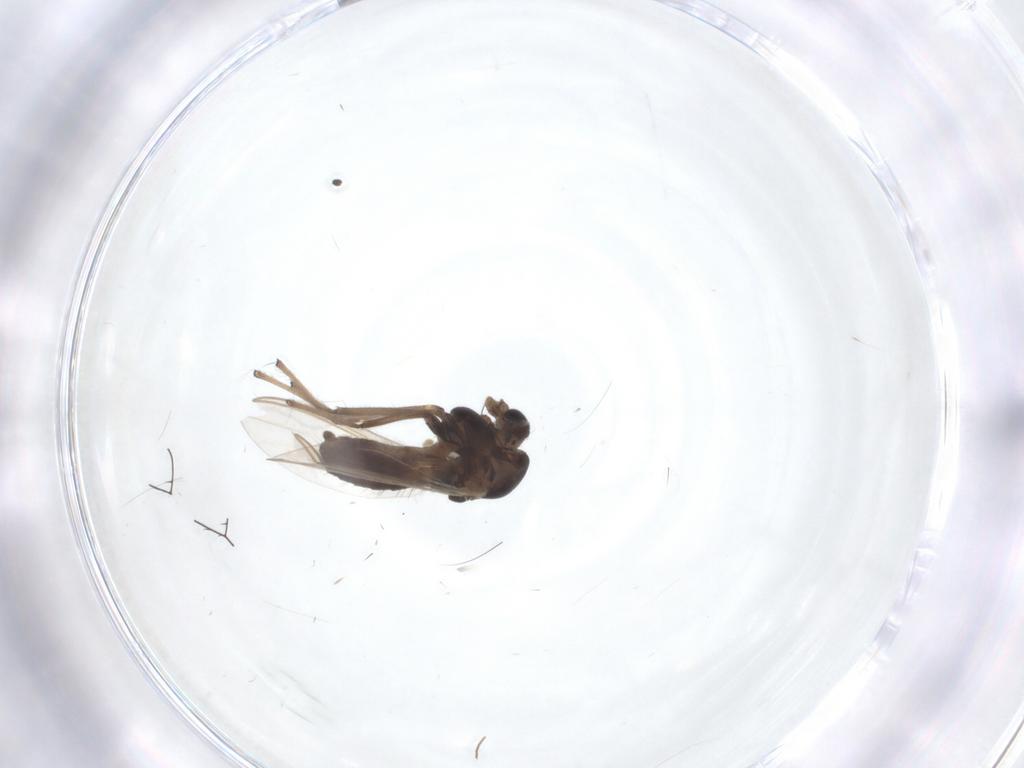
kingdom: Animalia
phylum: Arthropoda
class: Insecta
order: Diptera
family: Chironomidae
